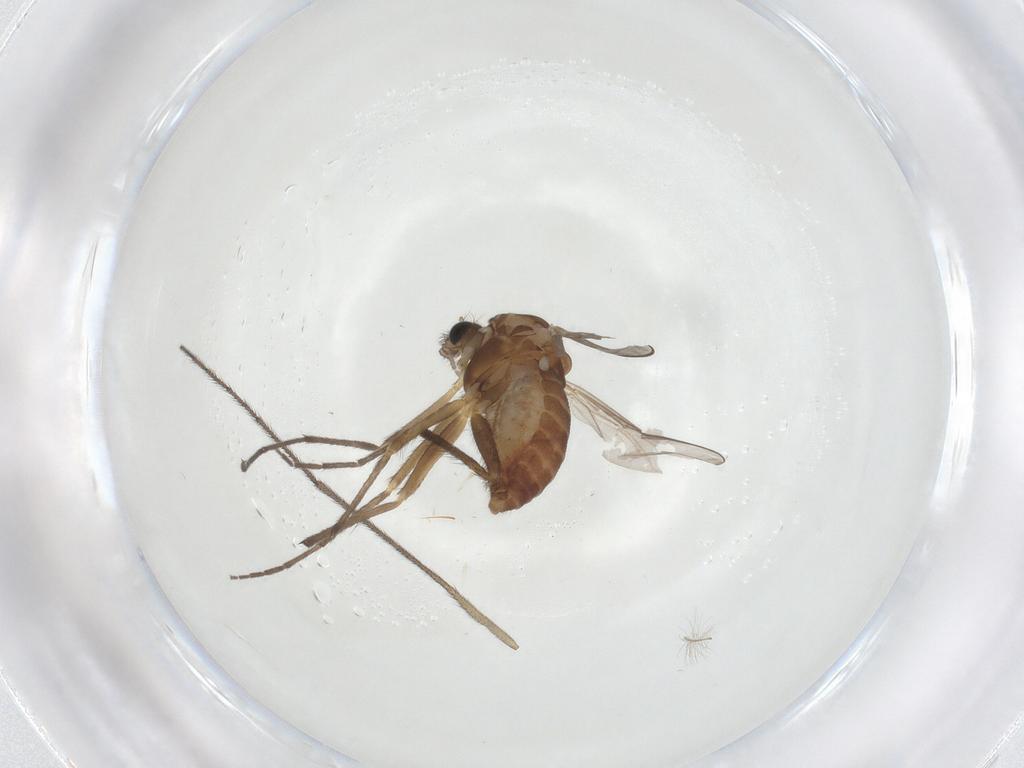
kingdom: Animalia
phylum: Arthropoda
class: Insecta
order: Diptera
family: Chironomidae
